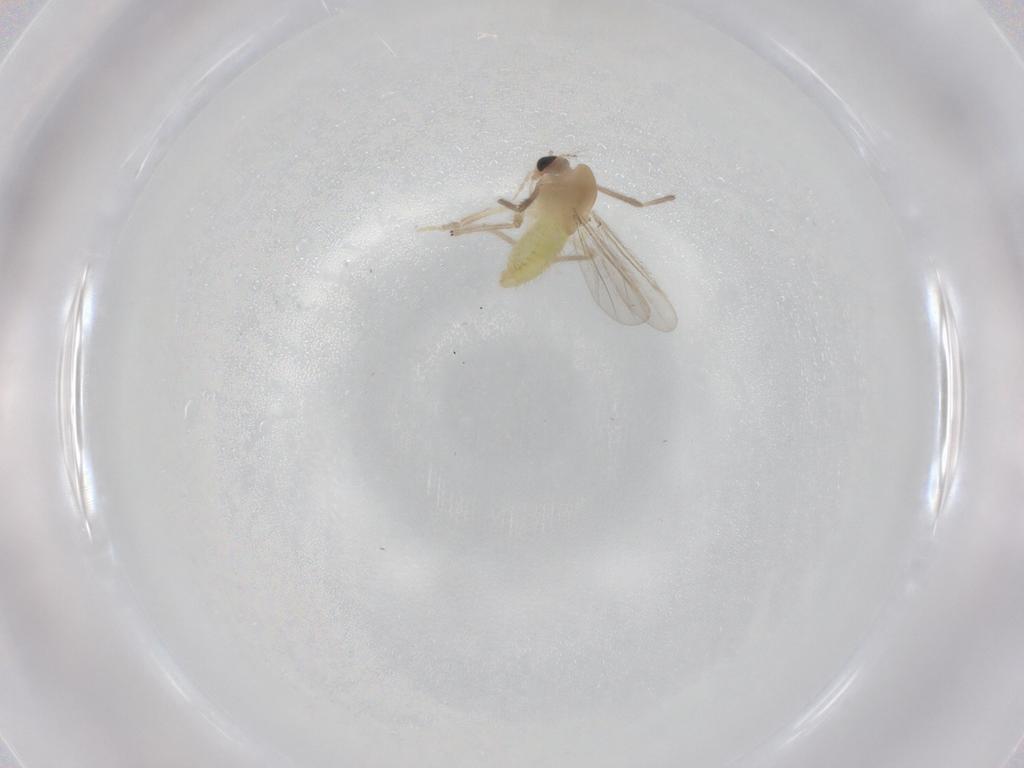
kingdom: Animalia
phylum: Arthropoda
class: Insecta
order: Diptera
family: Chironomidae
